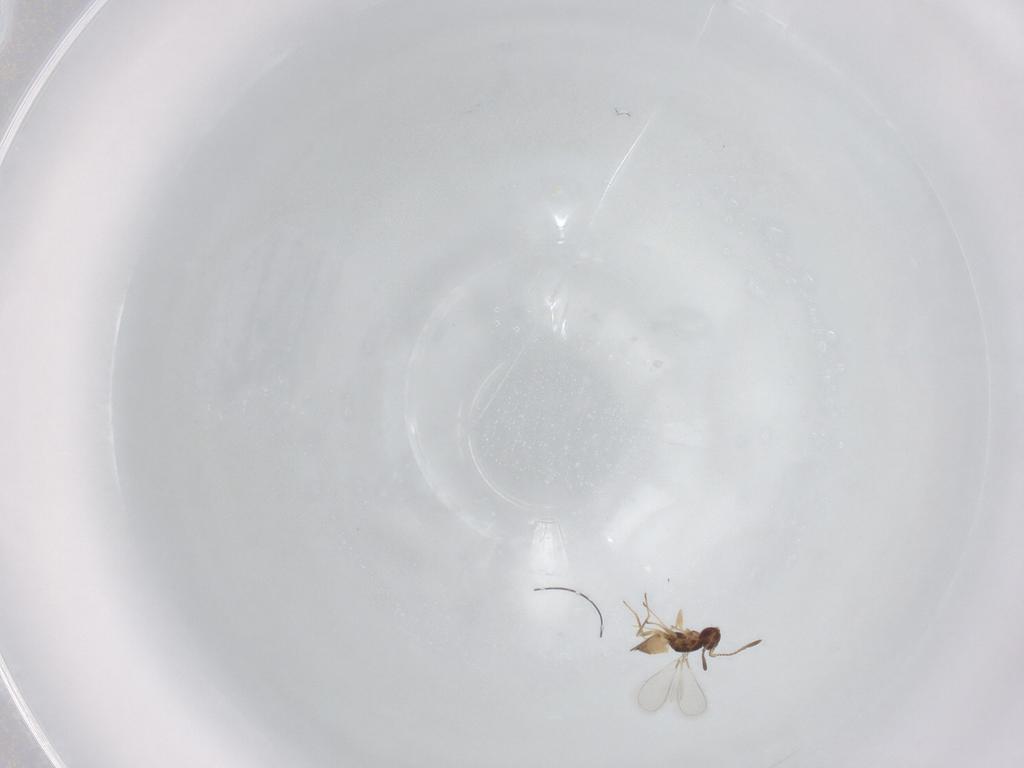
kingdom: Animalia
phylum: Arthropoda
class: Insecta
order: Hymenoptera
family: Mymaridae
